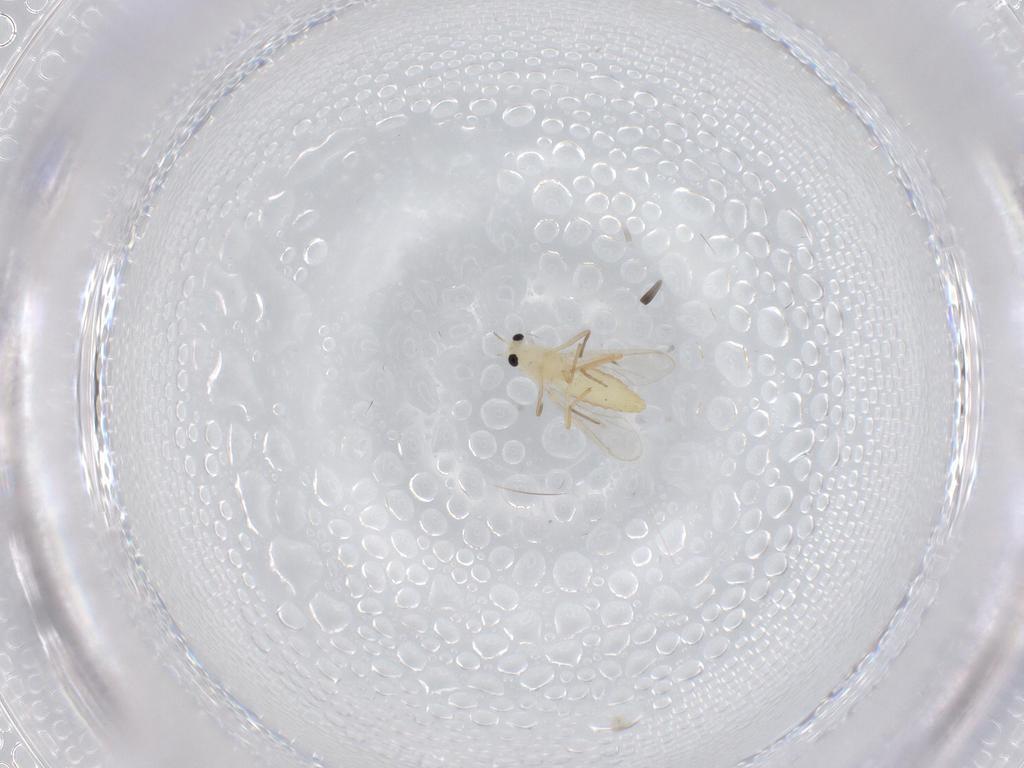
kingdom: Animalia
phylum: Arthropoda
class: Insecta
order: Diptera
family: Chironomidae
